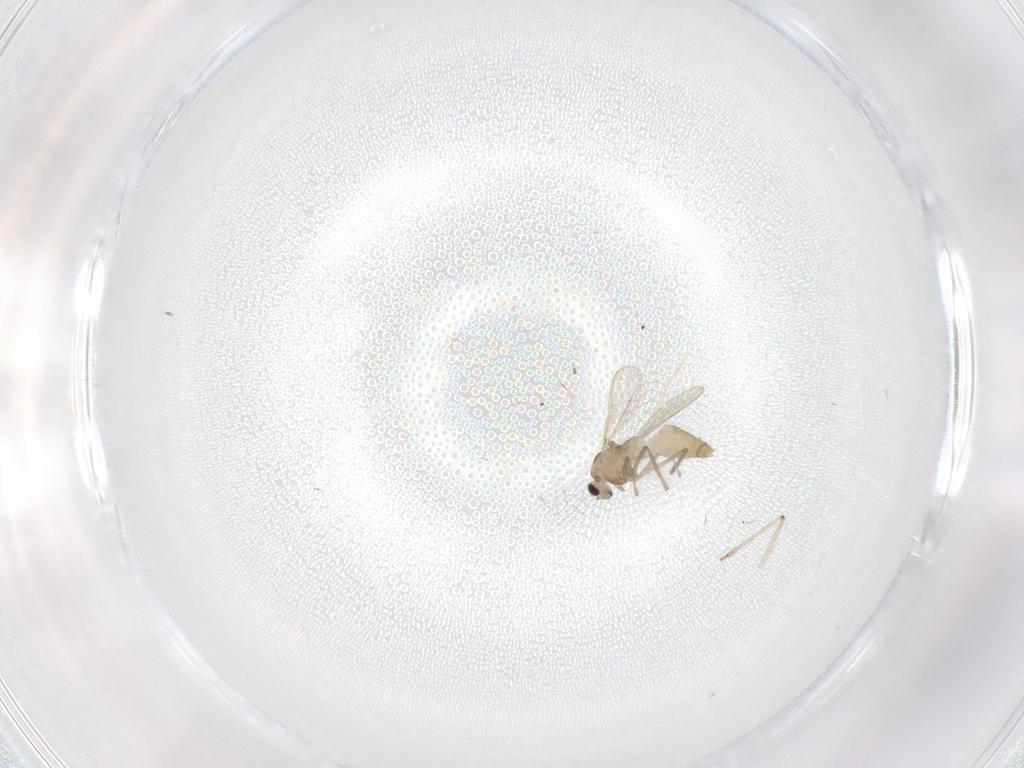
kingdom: Animalia
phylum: Arthropoda
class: Insecta
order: Diptera
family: Chironomidae
